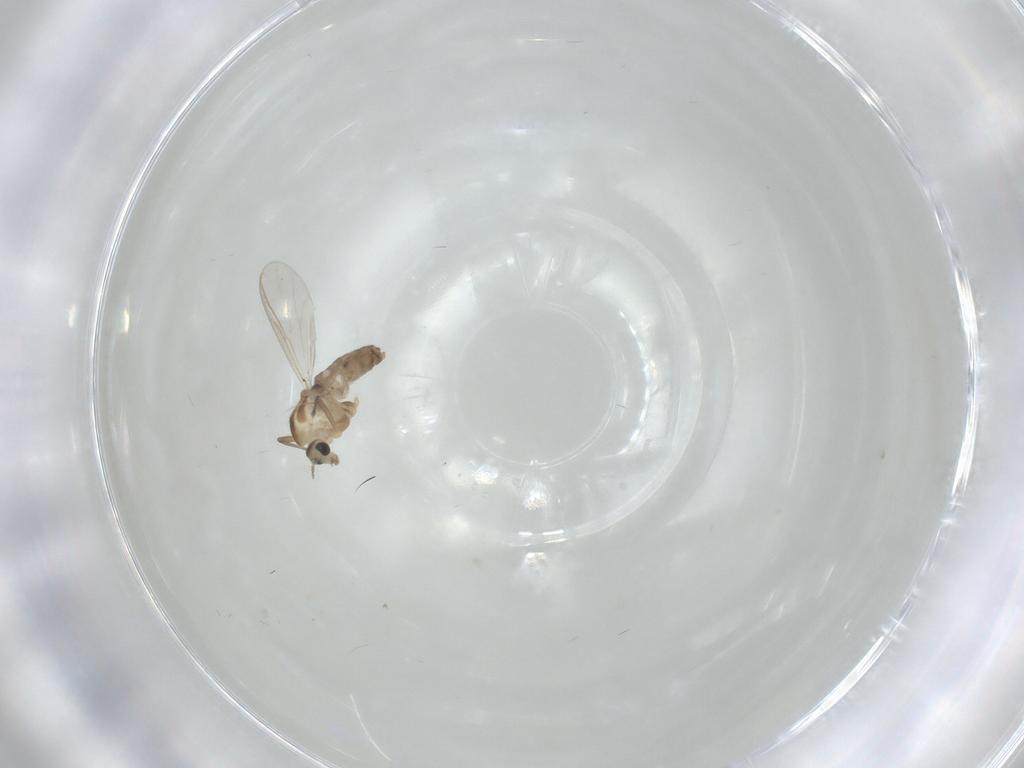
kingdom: Animalia
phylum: Arthropoda
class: Insecta
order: Diptera
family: Chironomidae
